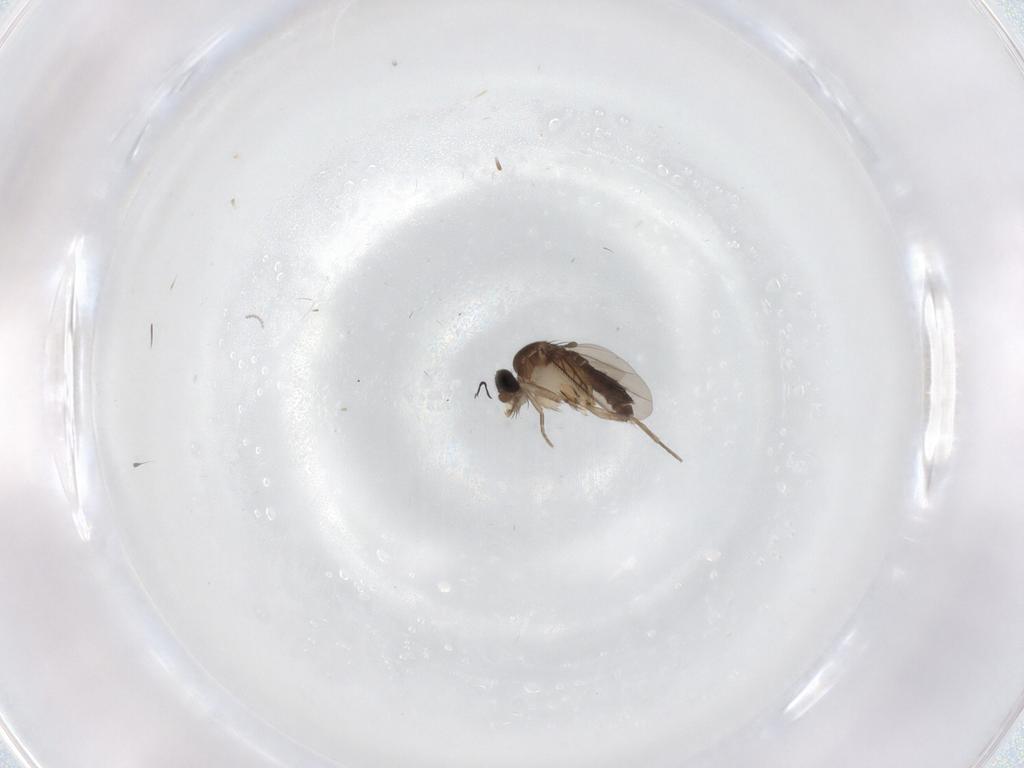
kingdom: Animalia
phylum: Arthropoda
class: Insecta
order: Diptera
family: Phoridae
